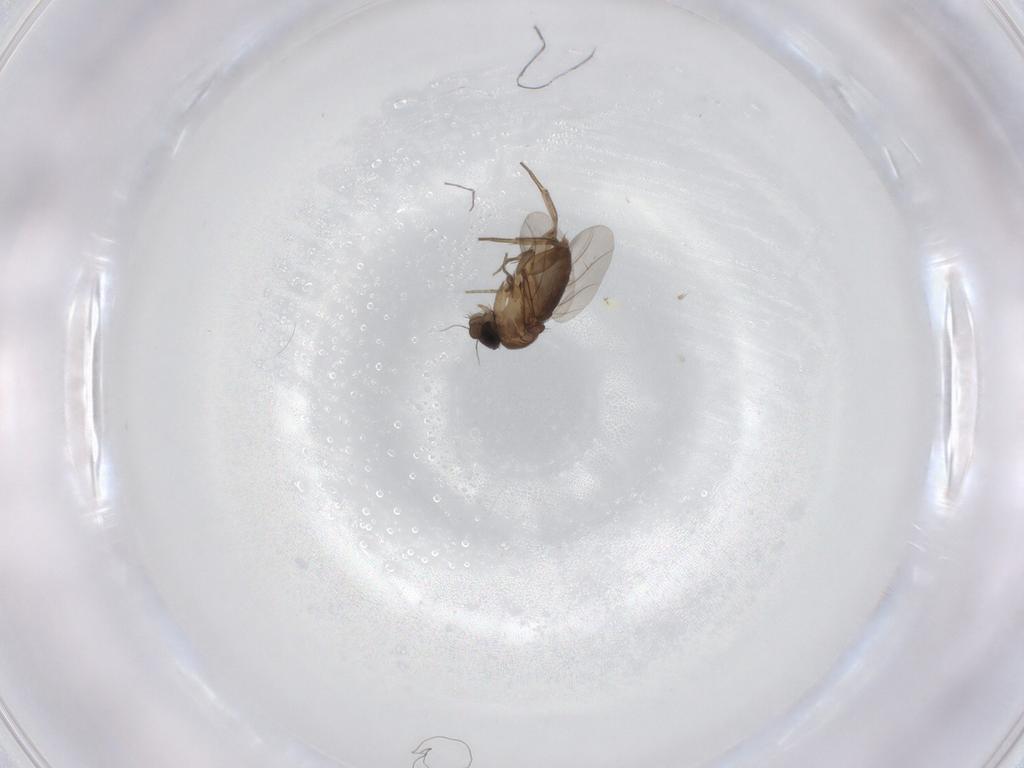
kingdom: Animalia
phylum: Arthropoda
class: Insecta
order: Diptera
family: Phoridae
